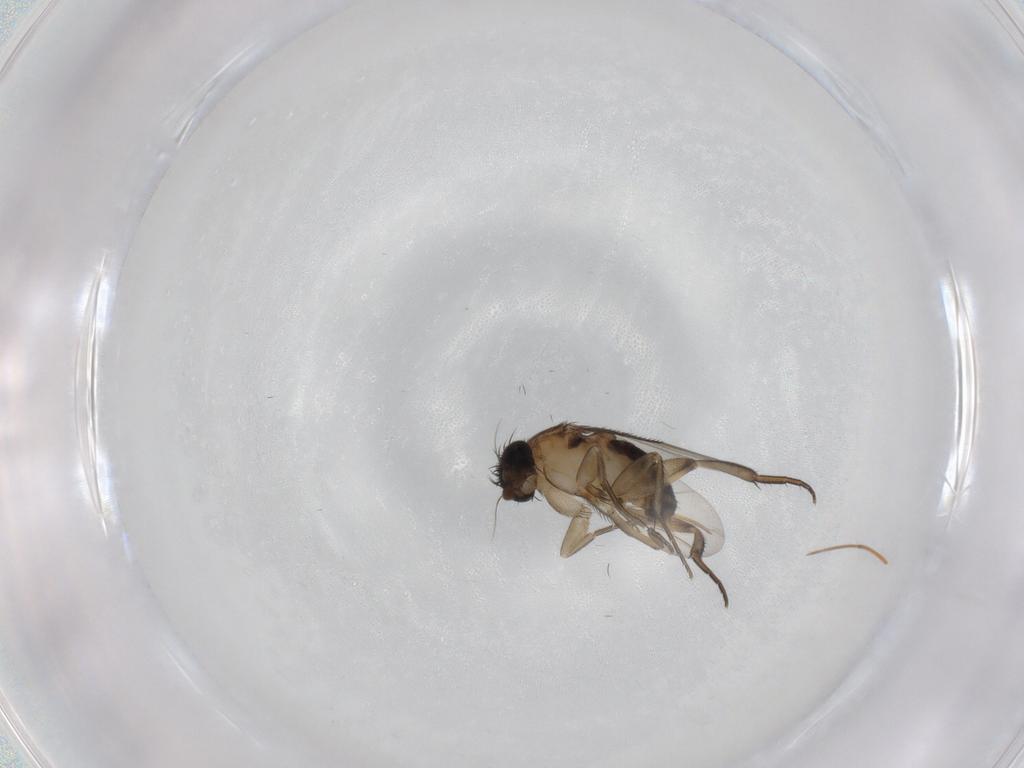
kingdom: Animalia
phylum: Arthropoda
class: Insecta
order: Diptera
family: Phoridae
